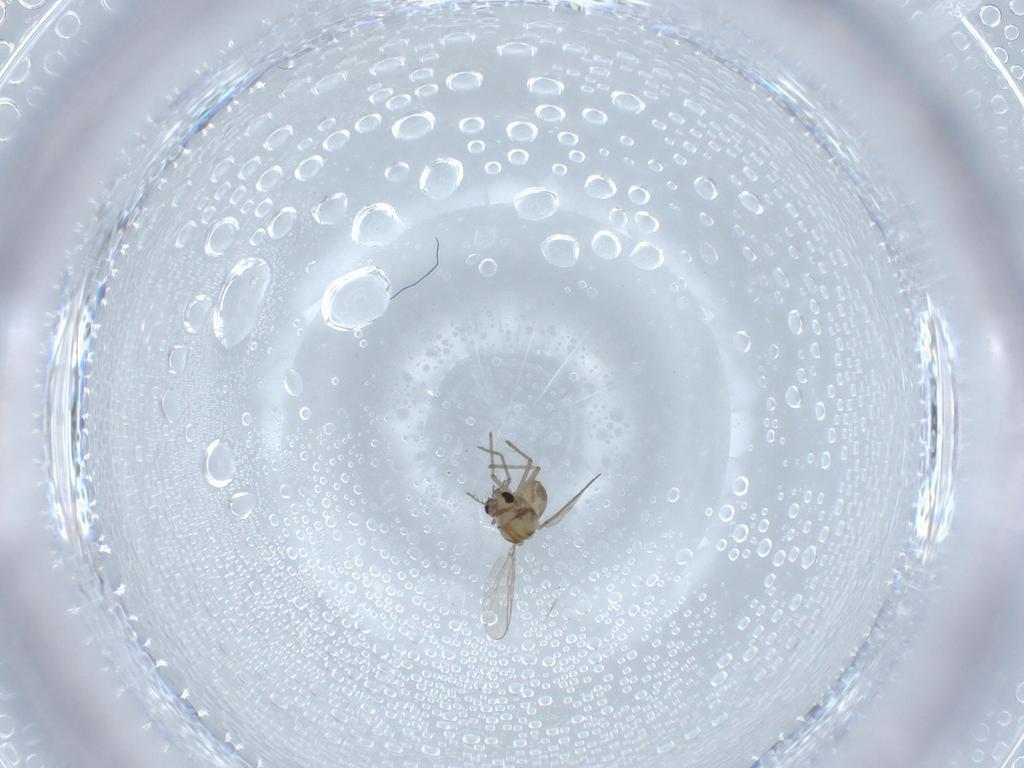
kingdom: Animalia
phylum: Arthropoda
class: Insecta
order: Diptera
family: Chironomidae
